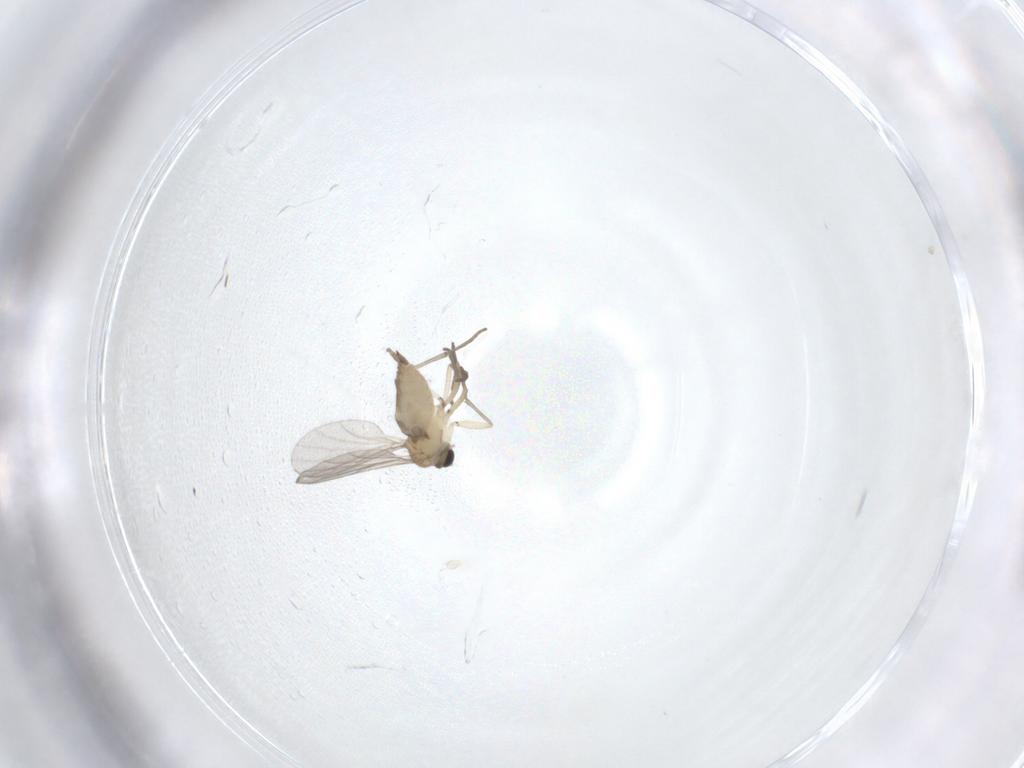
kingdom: Animalia
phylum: Arthropoda
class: Insecta
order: Diptera
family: Sciaridae
